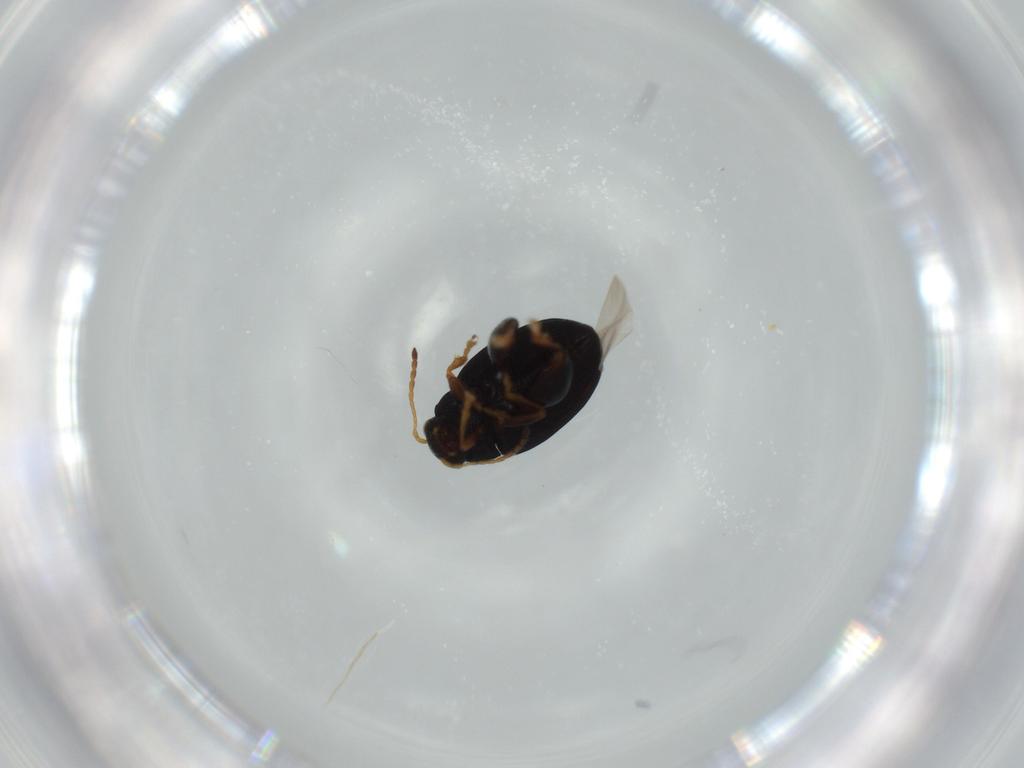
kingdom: Animalia
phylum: Arthropoda
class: Insecta
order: Coleoptera
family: Chrysomelidae
